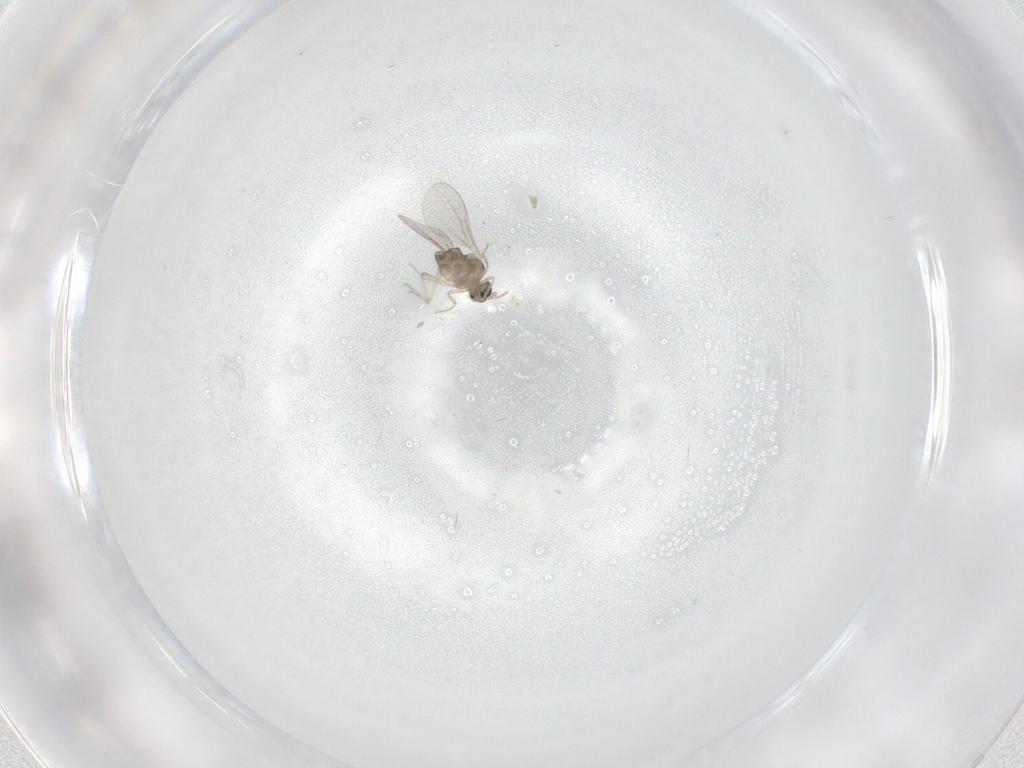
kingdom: Animalia
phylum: Arthropoda
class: Insecta
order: Diptera
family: Cecidomyiidae
